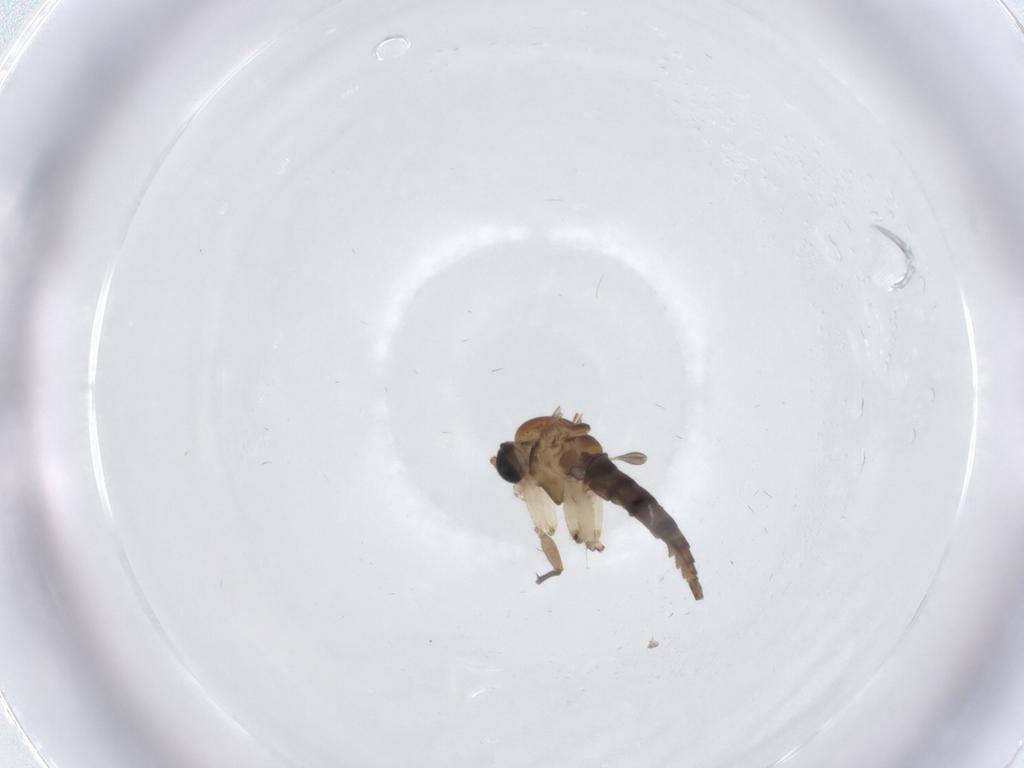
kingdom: Animalia
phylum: Arthropoda
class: Insecta
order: Diptera
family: Sciaridae
